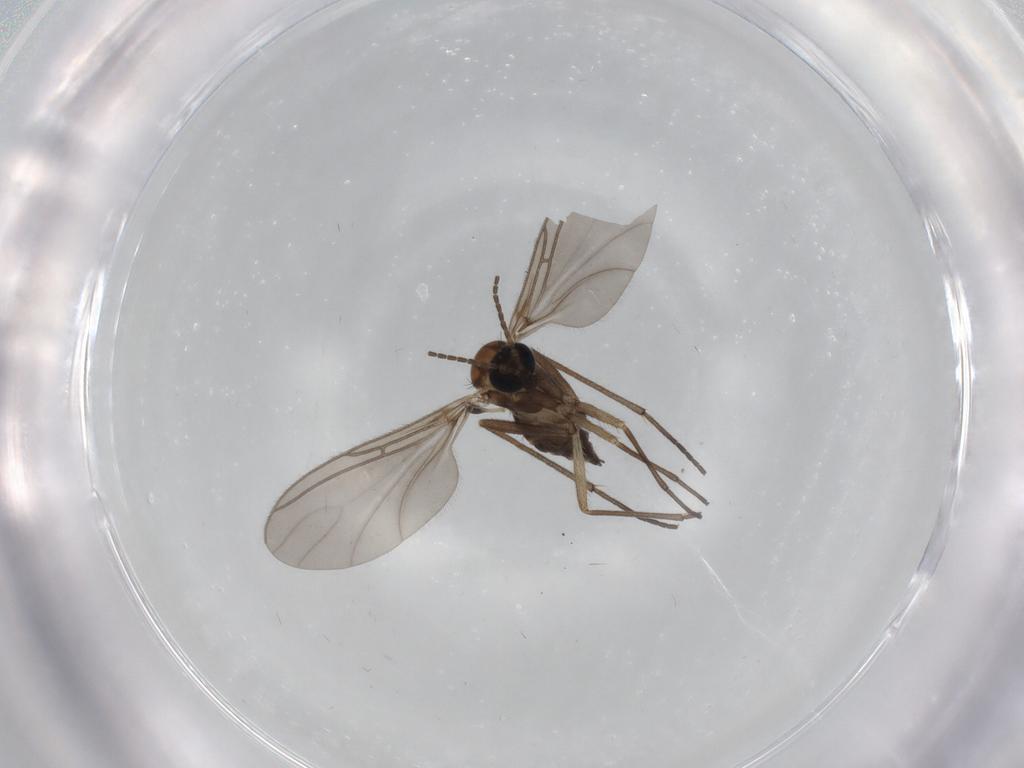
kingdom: Animalia
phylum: Arthropoda
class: Insecta
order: Diptera
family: Sciaridae
